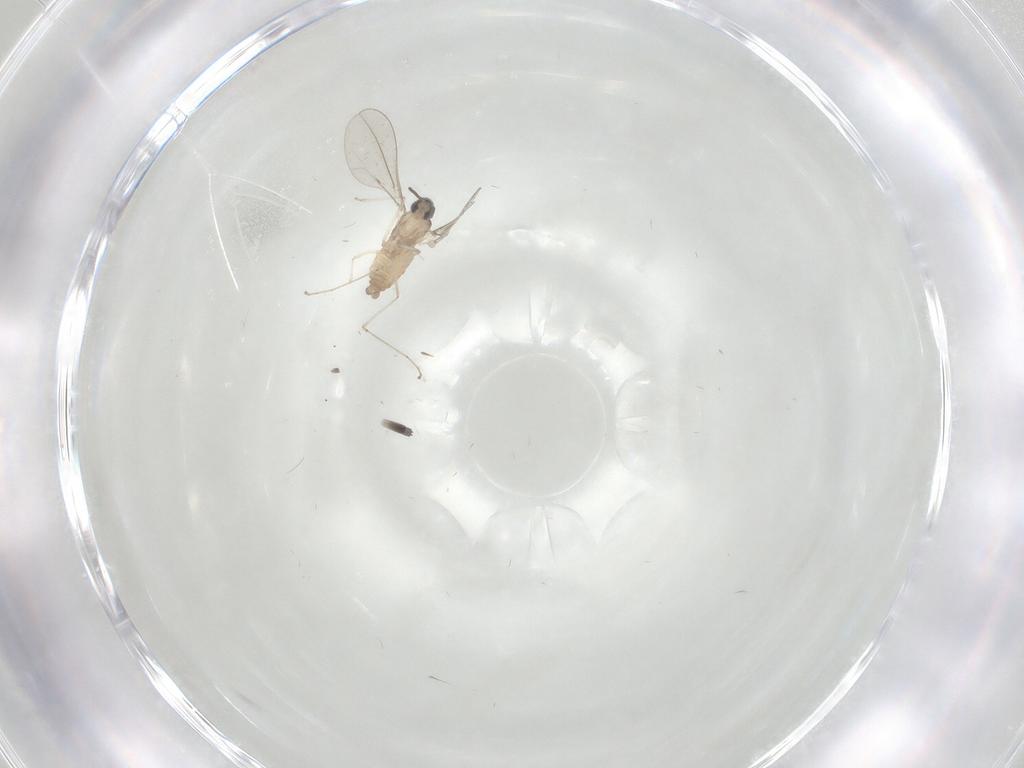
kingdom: Animalia
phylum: Arthropoda
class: Insecta
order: Diptera
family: Cecidomyiidae
